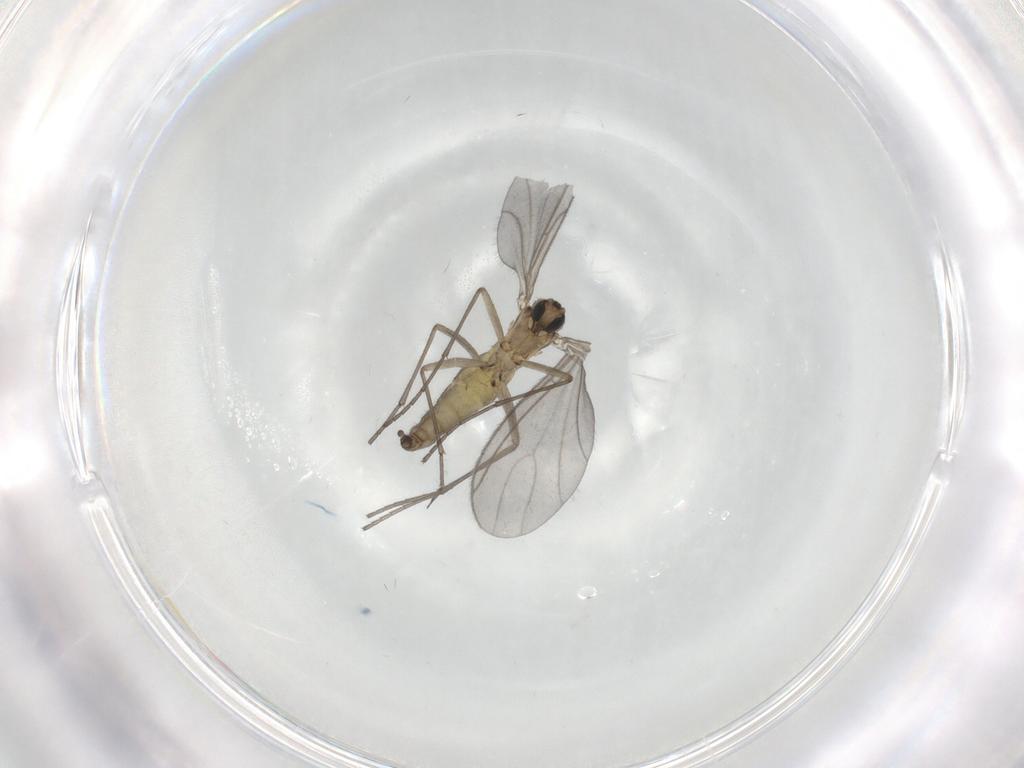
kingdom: Animalia
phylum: Arthropoda
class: Insecta
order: Diptera
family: Sciaridae
